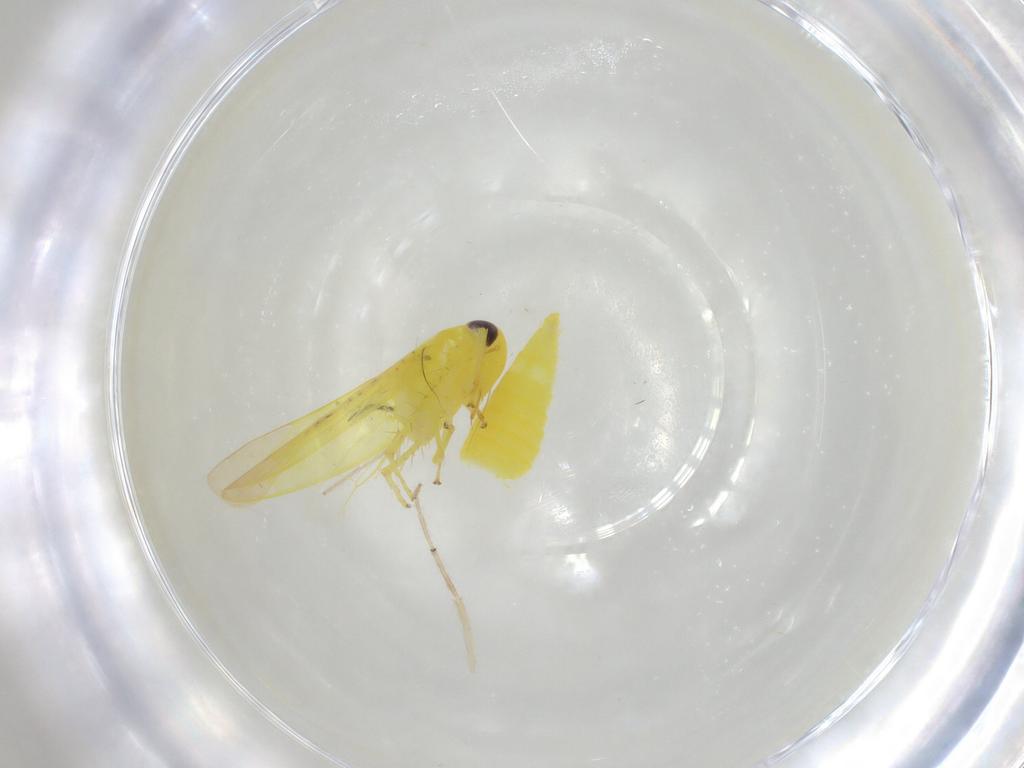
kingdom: Animalia
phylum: Arthropoda
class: Insecta
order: Hemiptera
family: Cicadellidae
